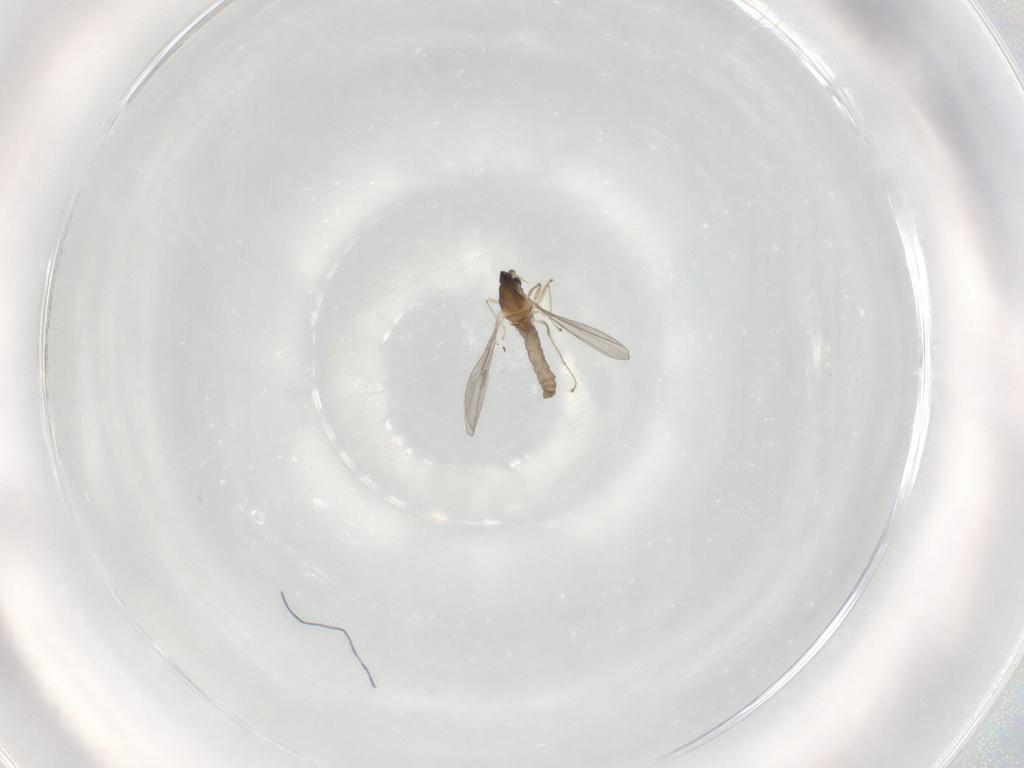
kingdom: Animalia
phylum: Arthropoda
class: Insecta
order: Diptera
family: Cecidomyiidae
